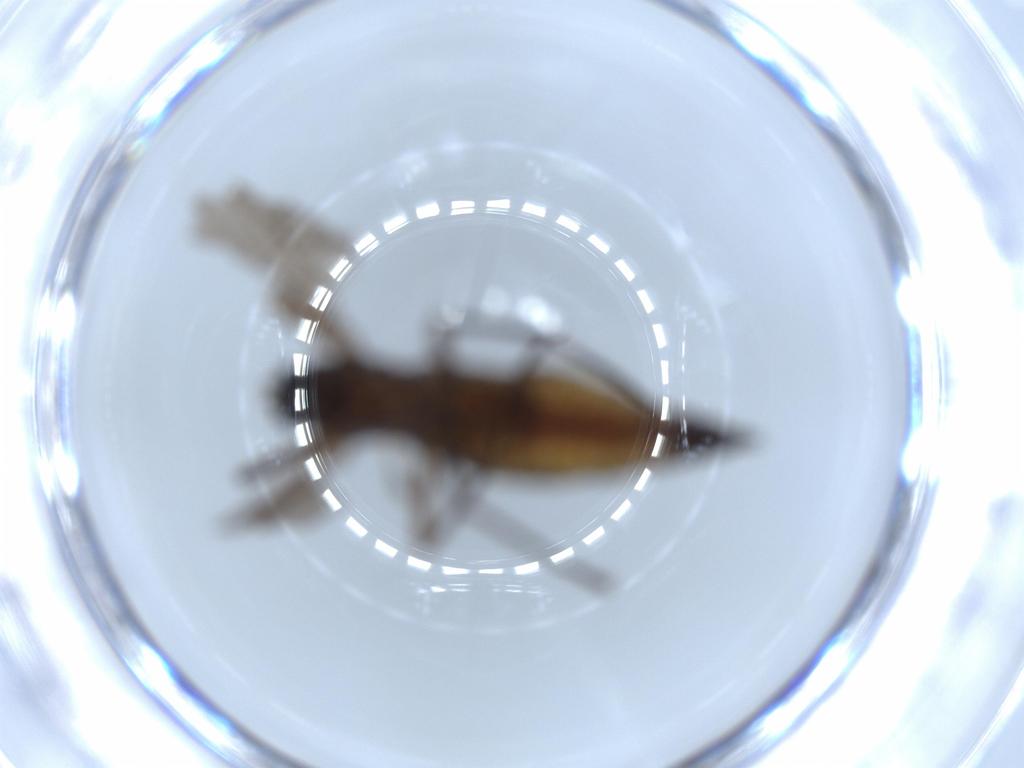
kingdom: Animalia
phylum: Arthropoda
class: Insecta
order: Diptera
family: Sciaridae
